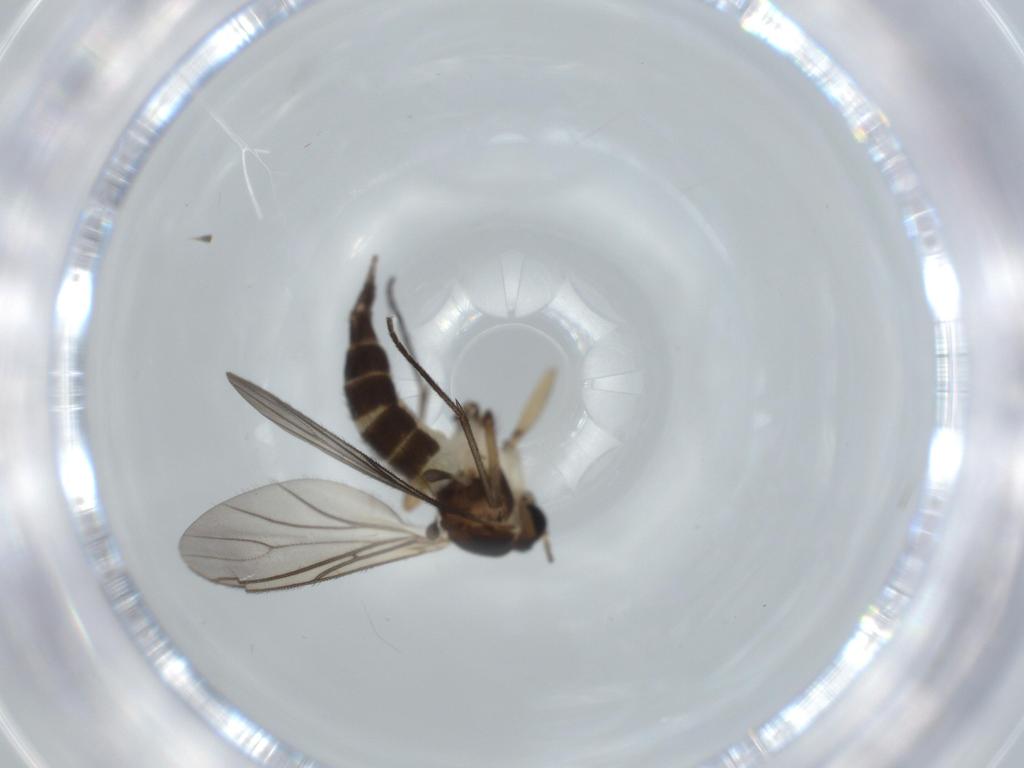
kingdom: Animalia
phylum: Arthropoda
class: Insecta
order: Diptera
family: Sciaridae
